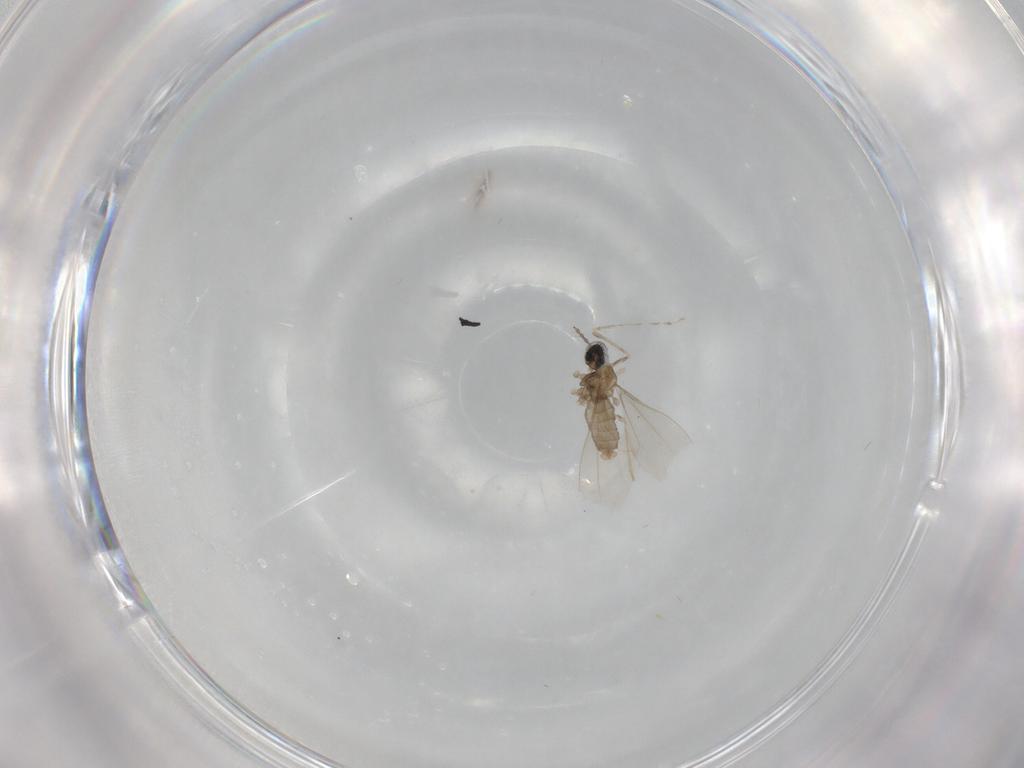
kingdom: Animalia
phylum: Arthropoda
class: Insecta
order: Diptera
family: Cecidomyiidae
